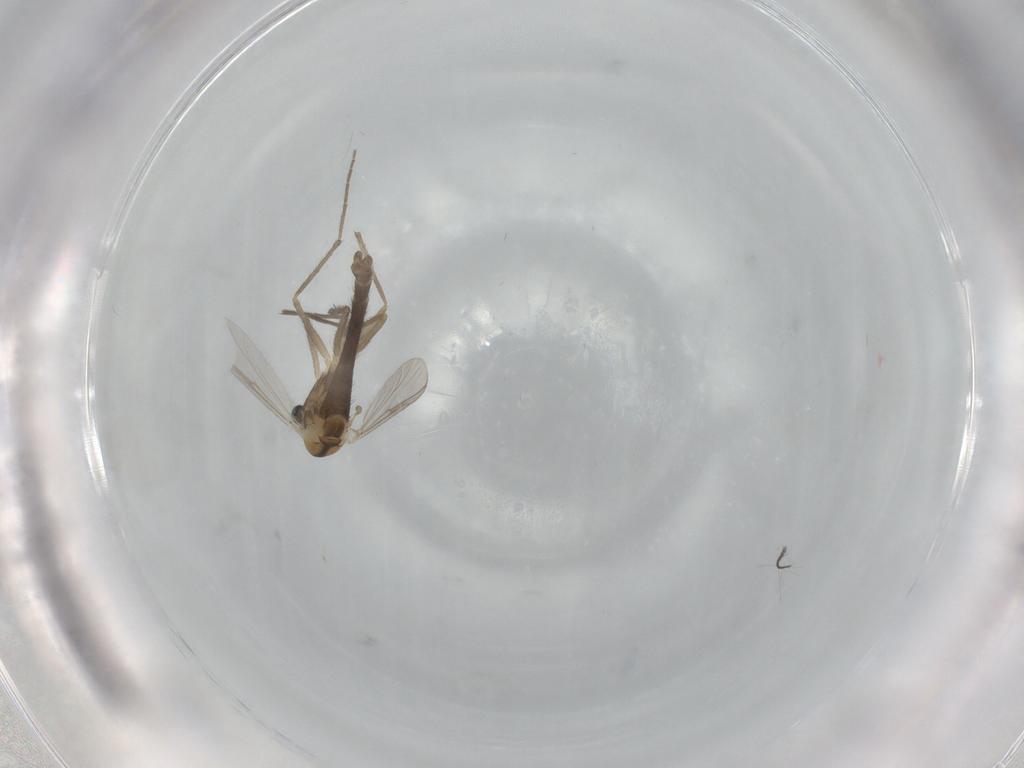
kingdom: Animalia
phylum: Arthropoda
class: Insecta
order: Diptera
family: Chironomidae
